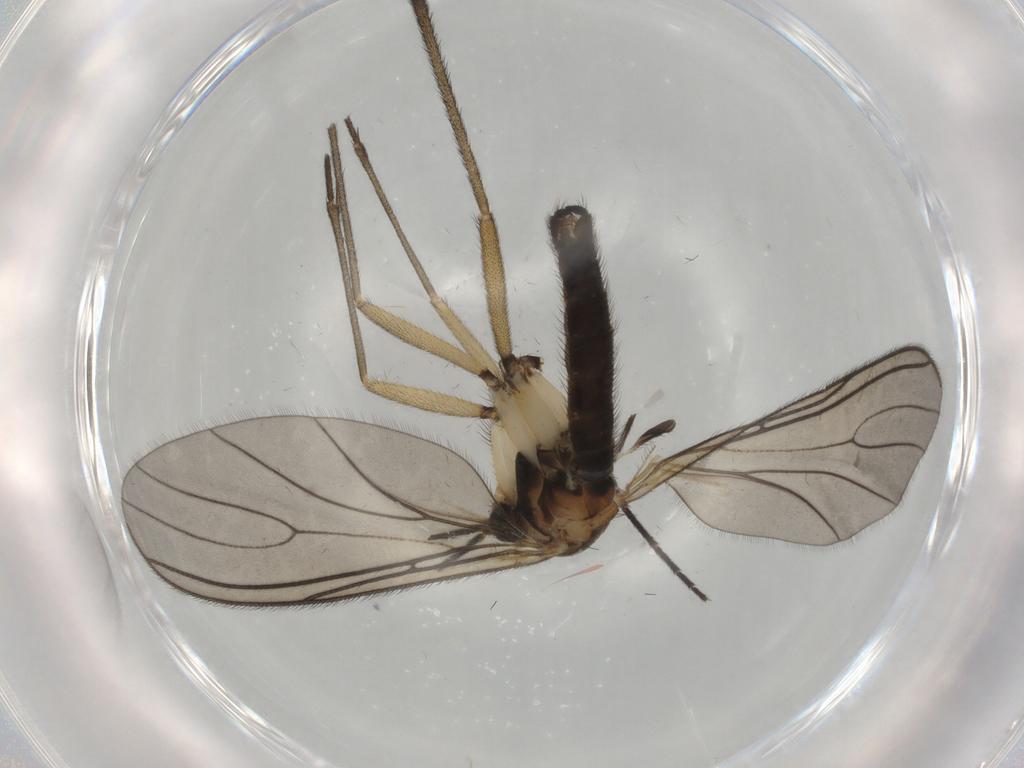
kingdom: Animalia
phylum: Arthropoda
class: Insecta
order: Diptera
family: Sciaridae
